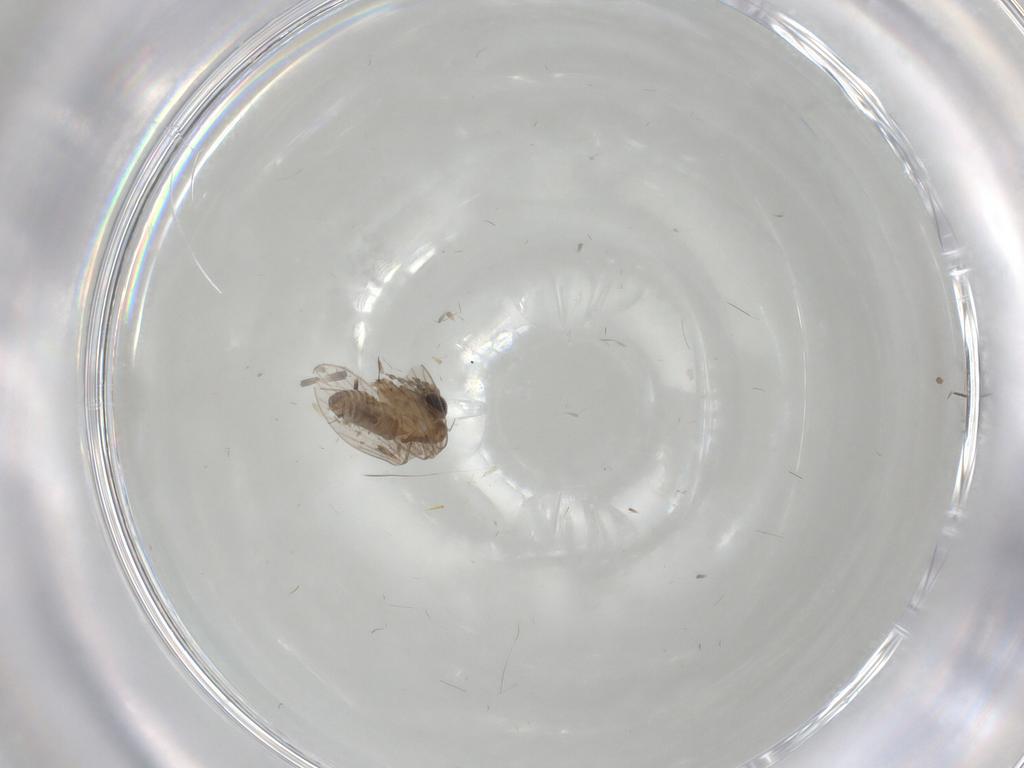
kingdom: Animalia
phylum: Arthropoda
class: Insecta
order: Diptera
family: Psychodidae
